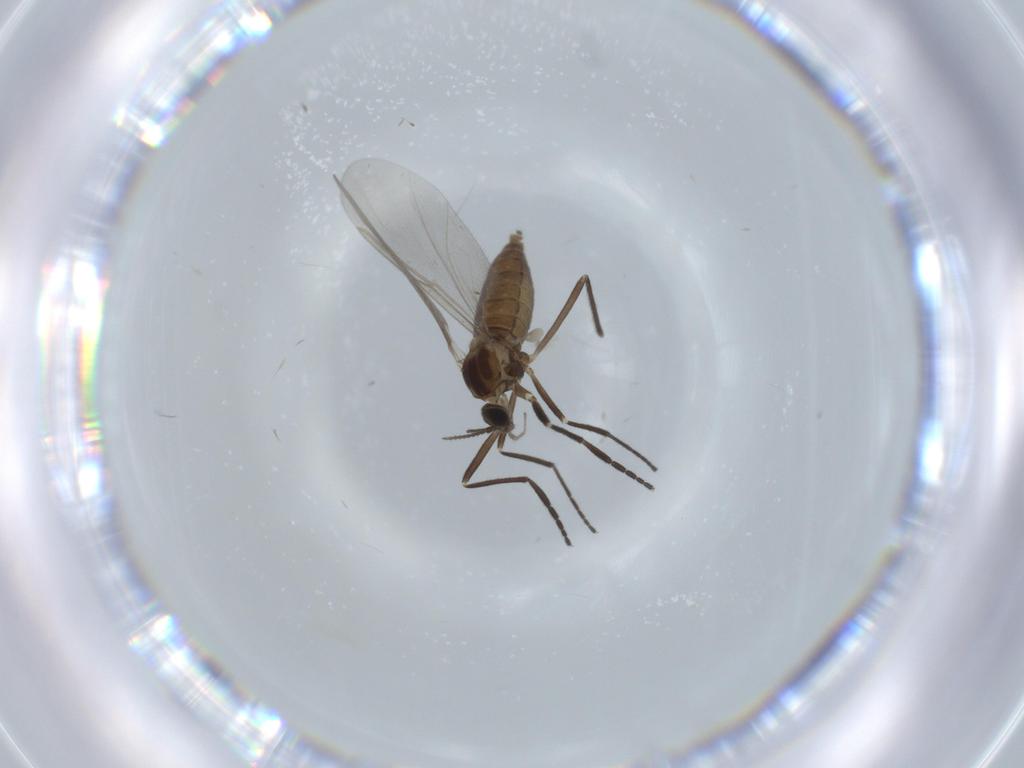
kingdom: Animalia
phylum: Arthropoda
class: Insecta
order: Diptera
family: Cecidomyiidae
